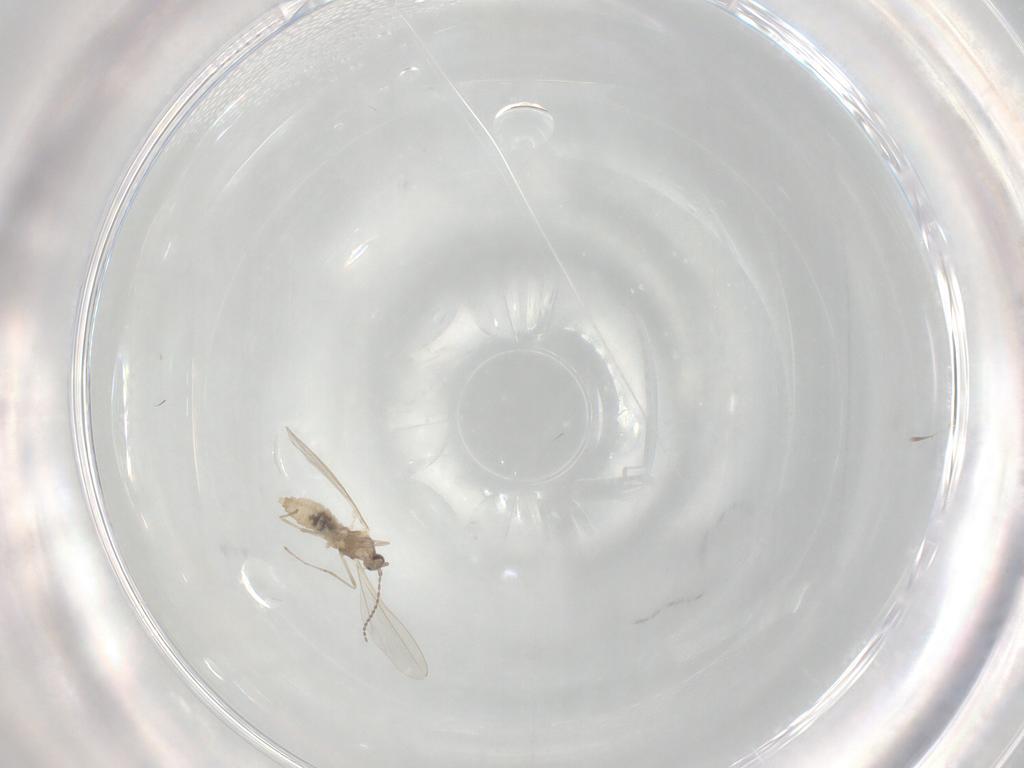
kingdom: Animalia
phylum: Arthropoda
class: Insecta
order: Diptera
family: Cecidomyiidae
